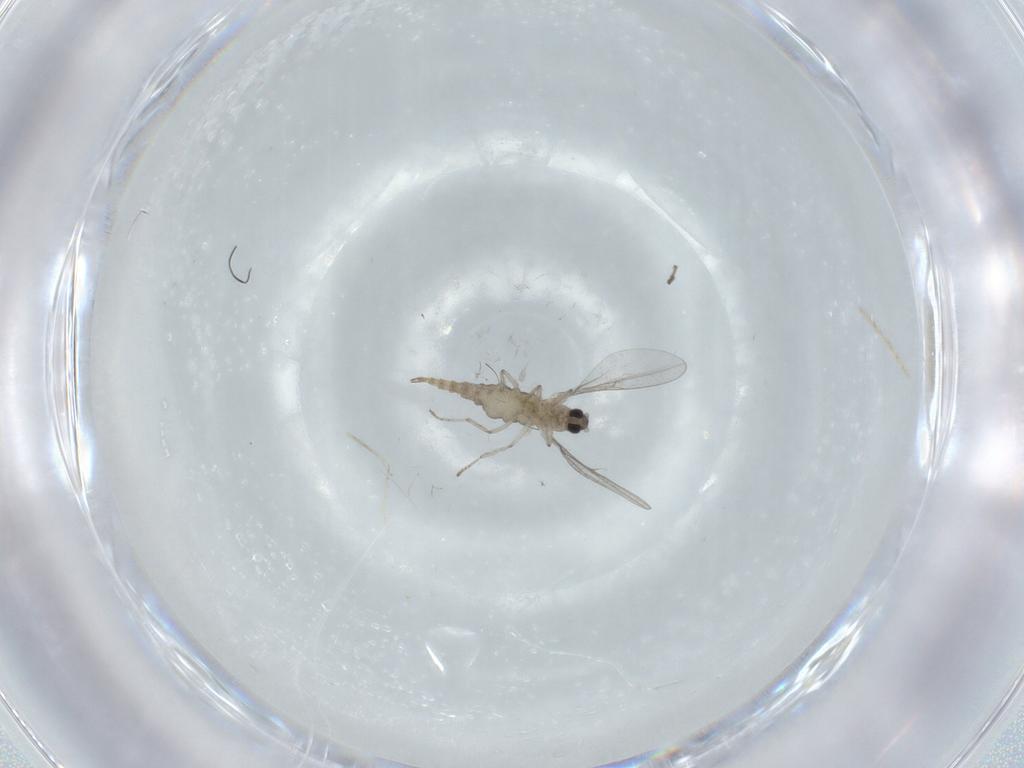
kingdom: Animalia
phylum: Arthropoda
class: Insecta
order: Diptera
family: Cecidomyiidae
